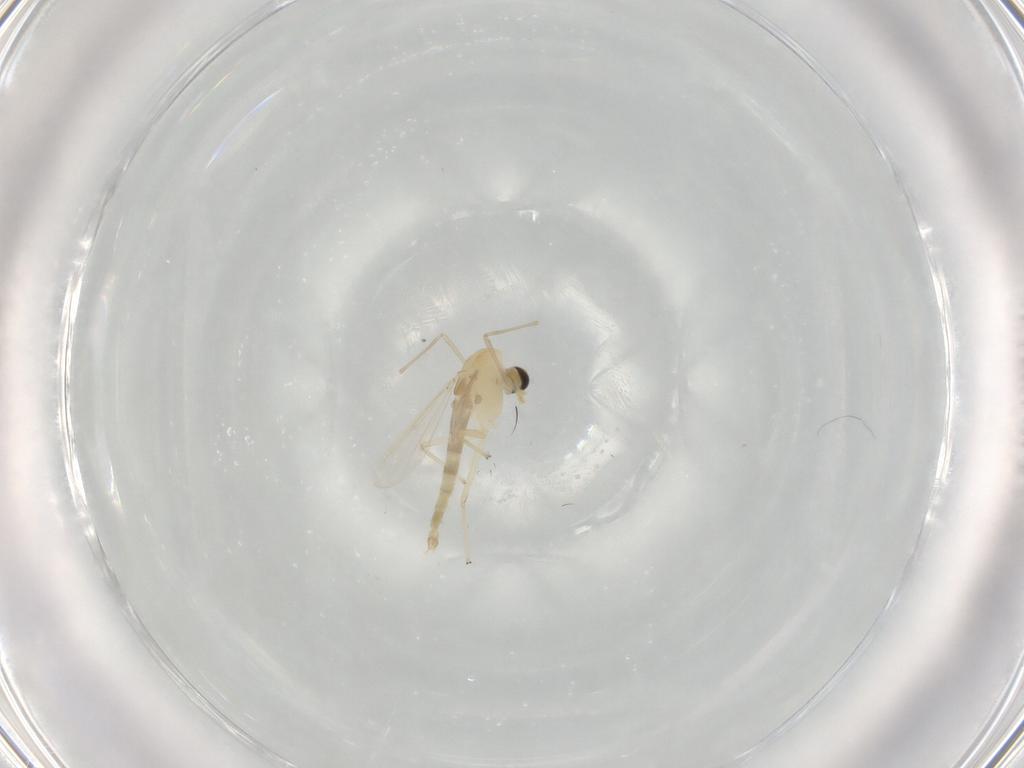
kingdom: Animalia
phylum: Arthropoda
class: Insecta
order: Diptera
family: Chironomidae
